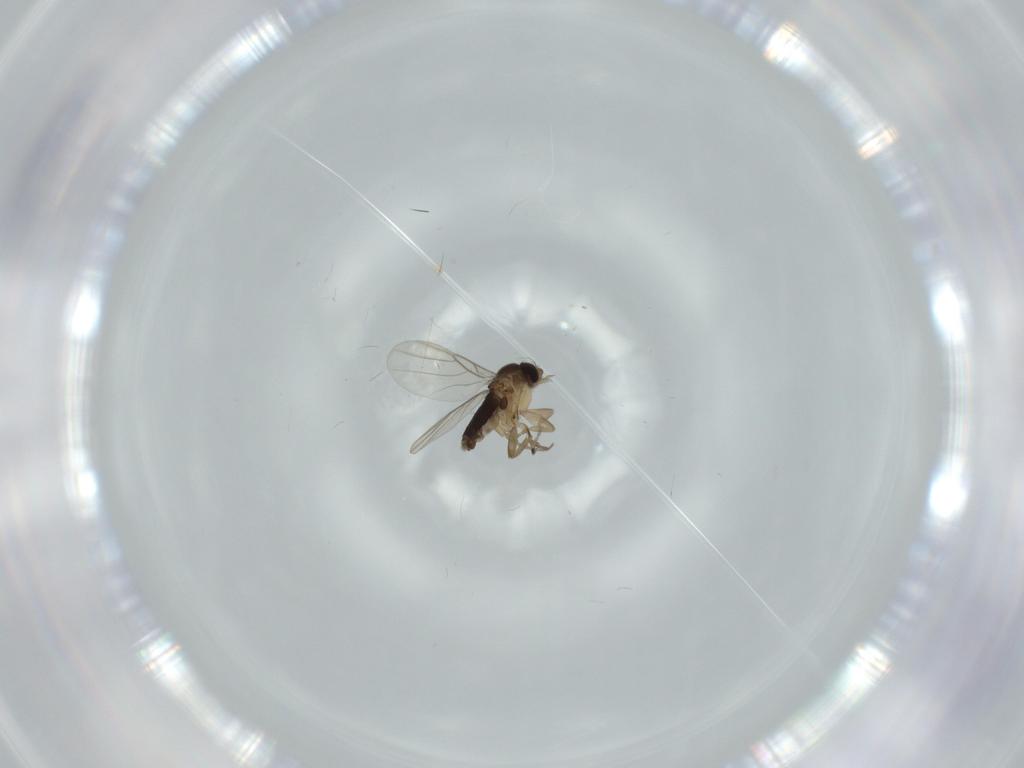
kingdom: Animalia
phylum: Arthropoda
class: Insecta
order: Diptera
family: Phoridae
